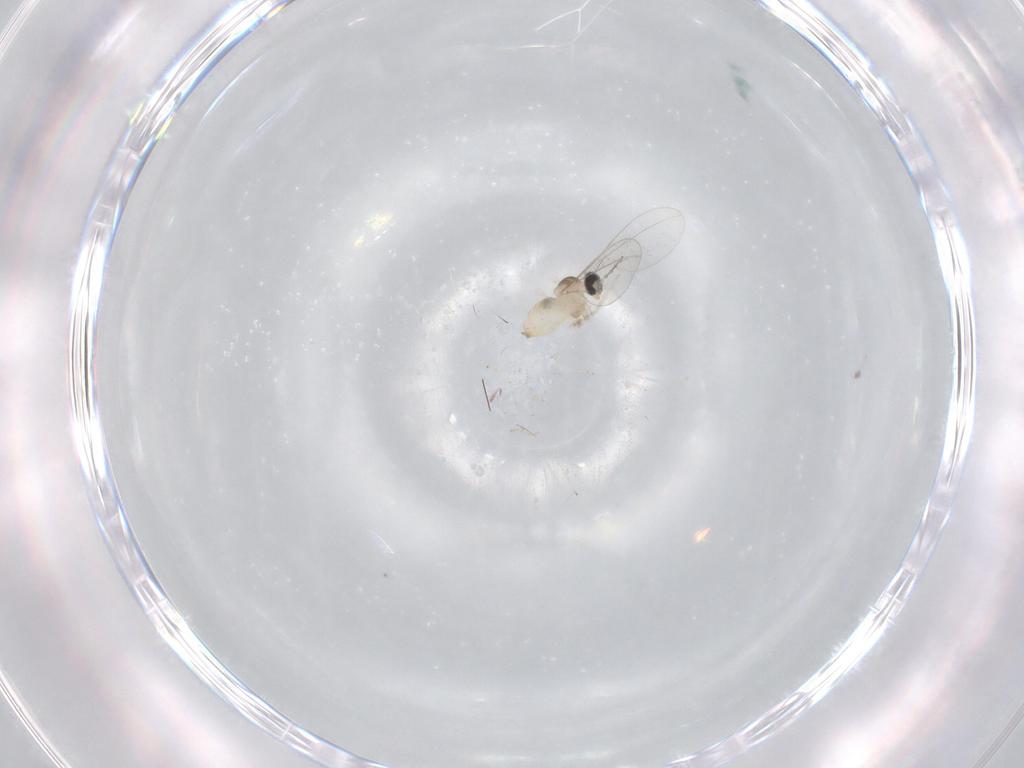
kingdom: Animalia
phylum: Arthropoda
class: Insecta
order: Diptera
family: Cecidomyiidae
